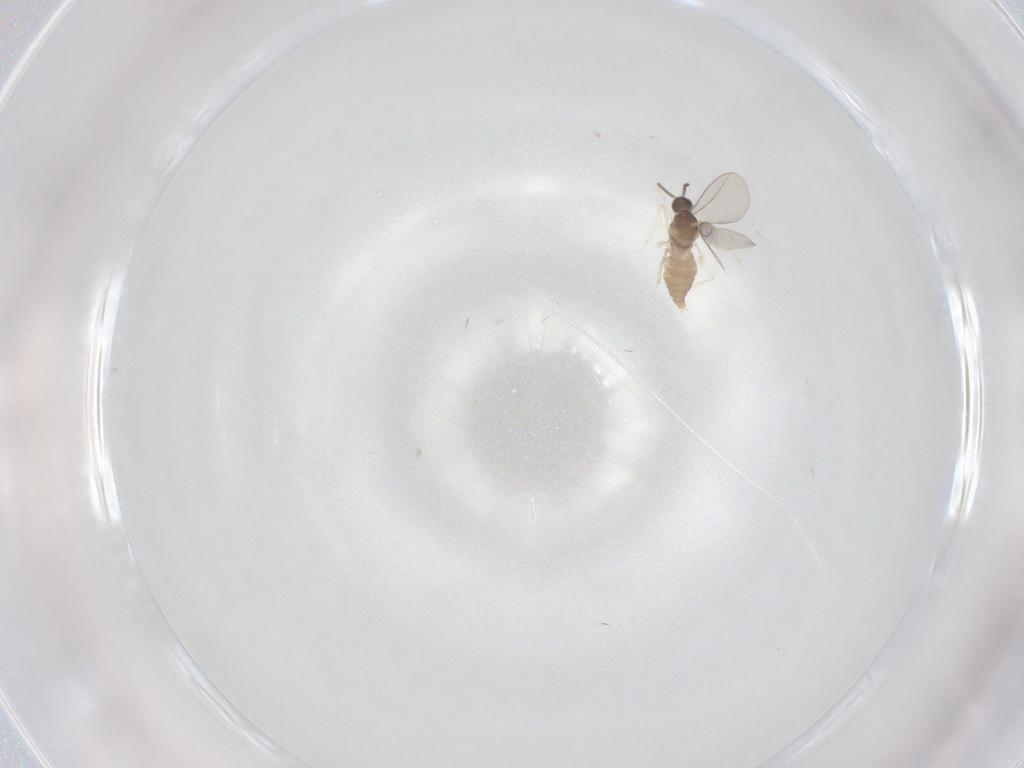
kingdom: Animalia
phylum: Arthropoda
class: Insecta
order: Diptera
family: Cecidomyiidae
